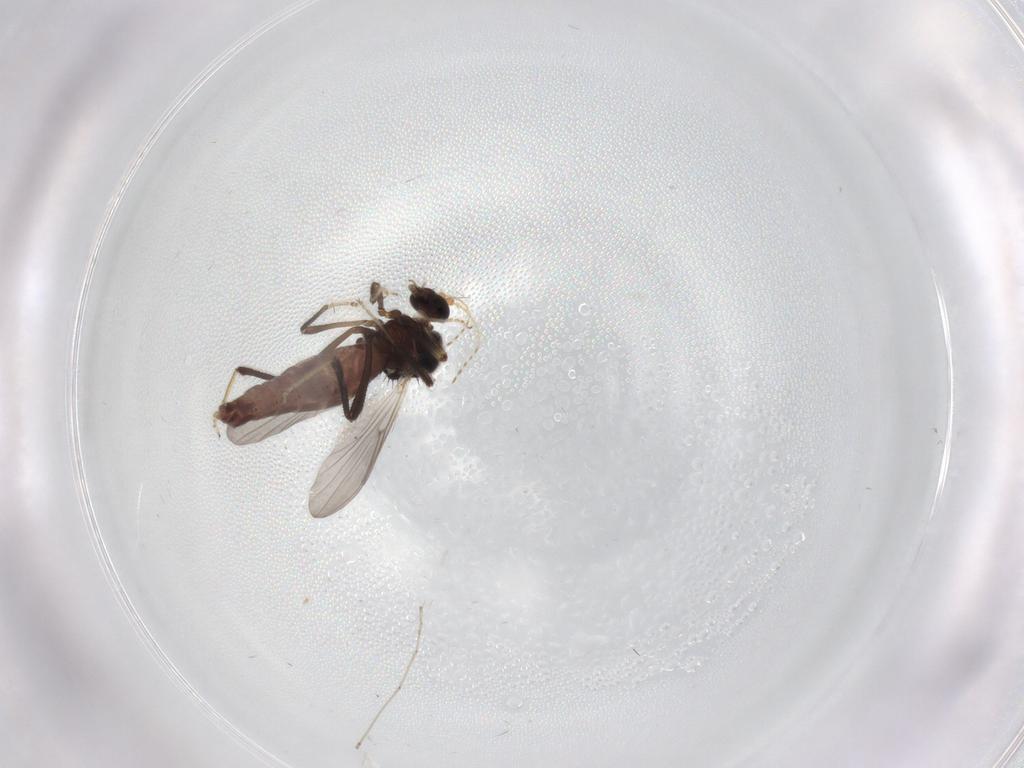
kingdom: Animalia
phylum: Arthropoda
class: Insecta
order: Diptera
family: Ceratopogonidae
